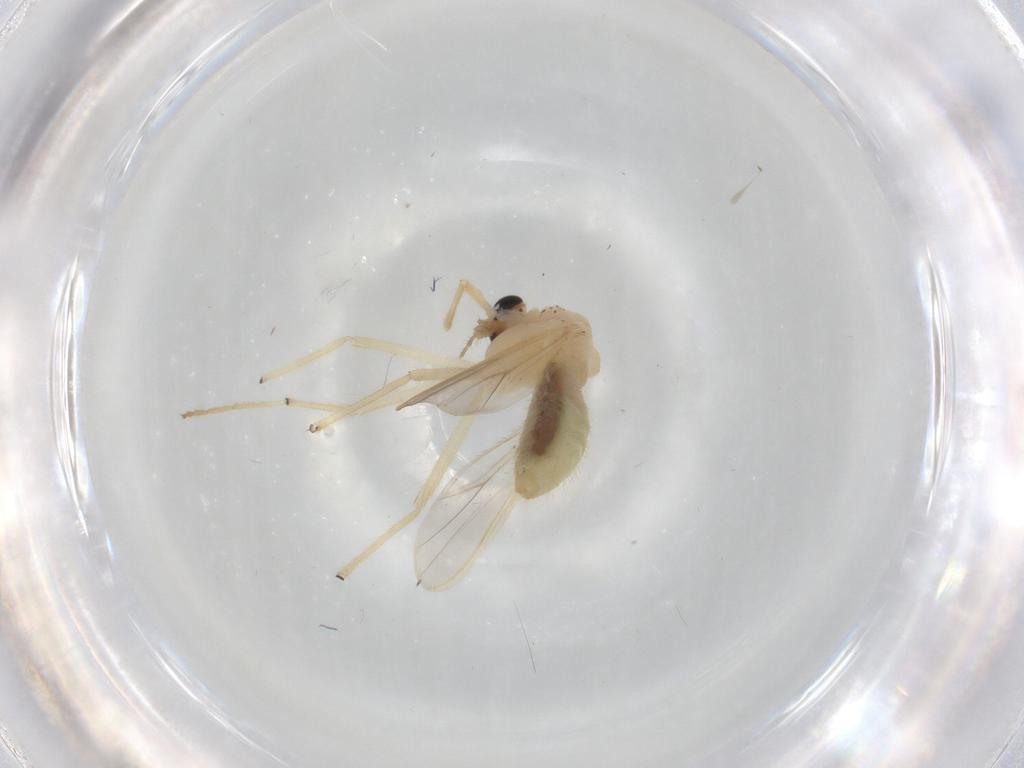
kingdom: Animalia
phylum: Arthropoda
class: Insecta
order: Diptera
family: Chironomidae
